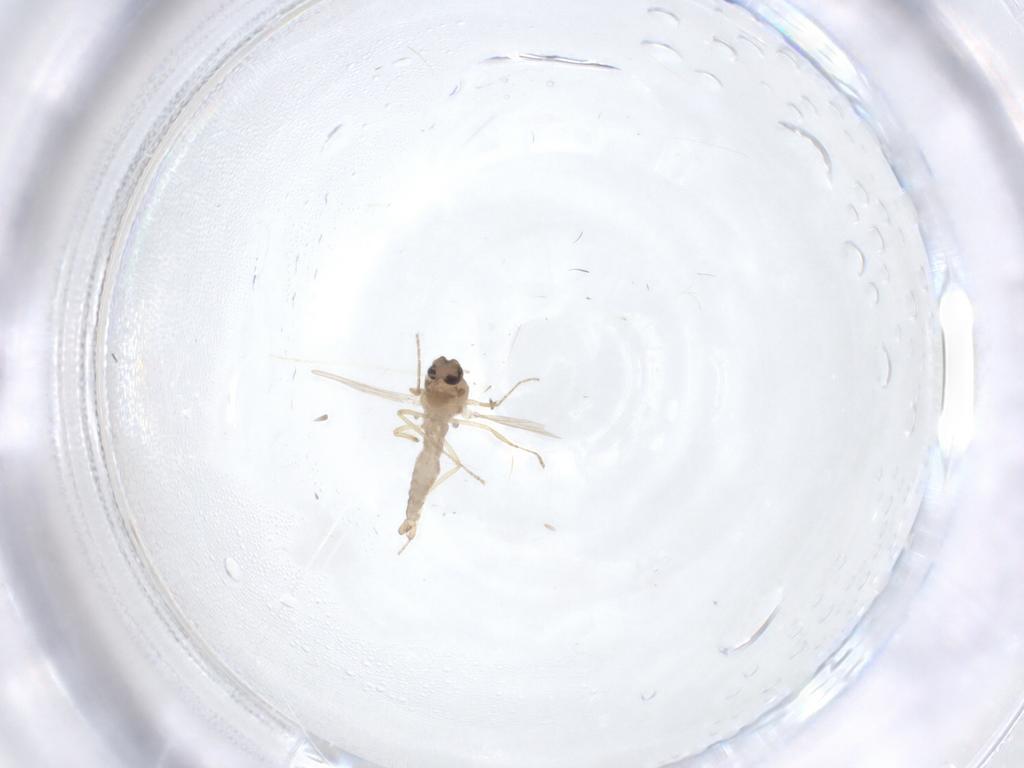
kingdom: Animalia
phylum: Arthropoda
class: Insecta
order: Diptera
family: Ceratopogonidae
